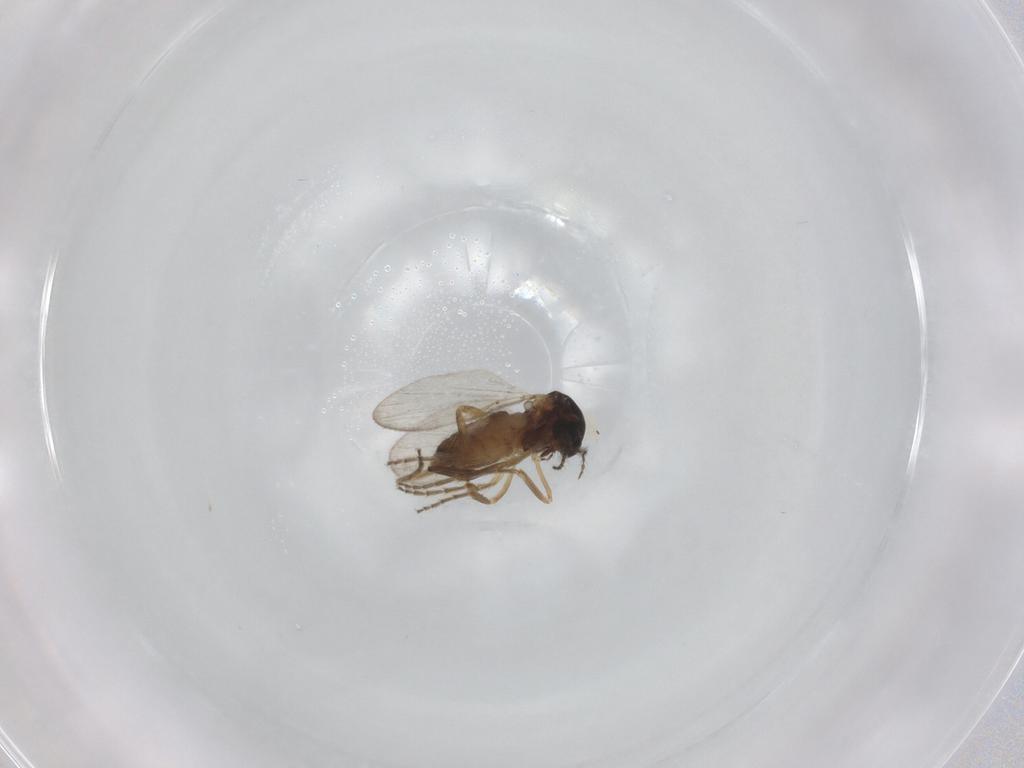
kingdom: Animalia
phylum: Arthropoda
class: Insecta
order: Diptera
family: Ceratopogonidae
